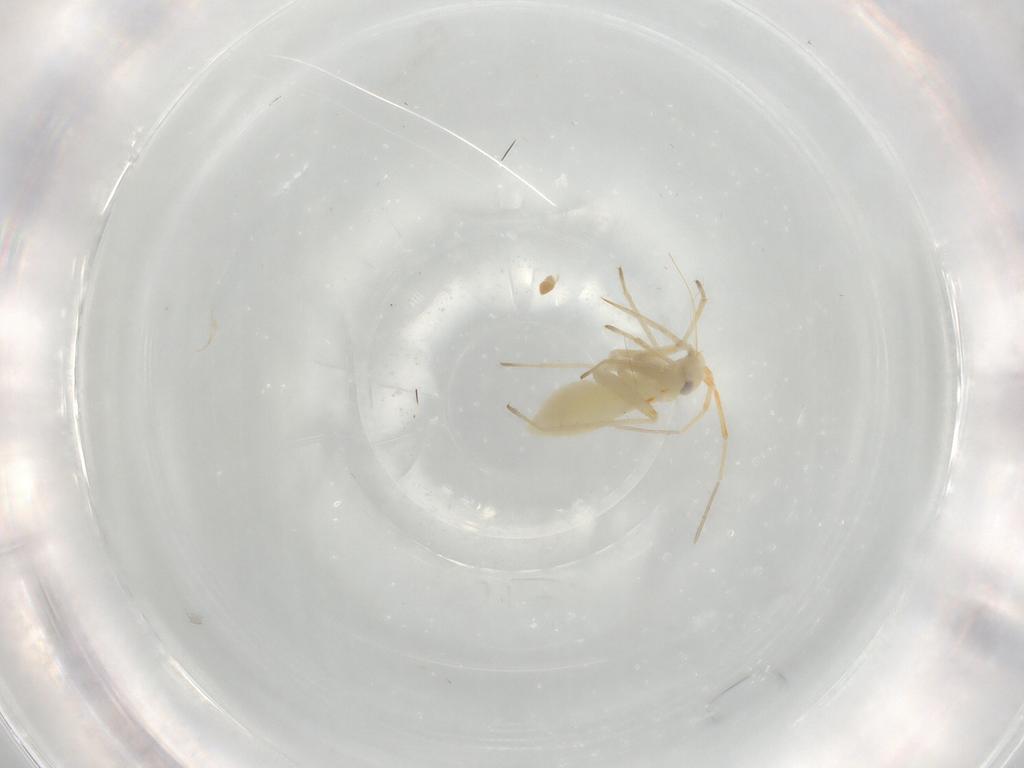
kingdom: Animalia
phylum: Arthropoda
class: Insecta
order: Hemiptera
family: Cicadellidae
